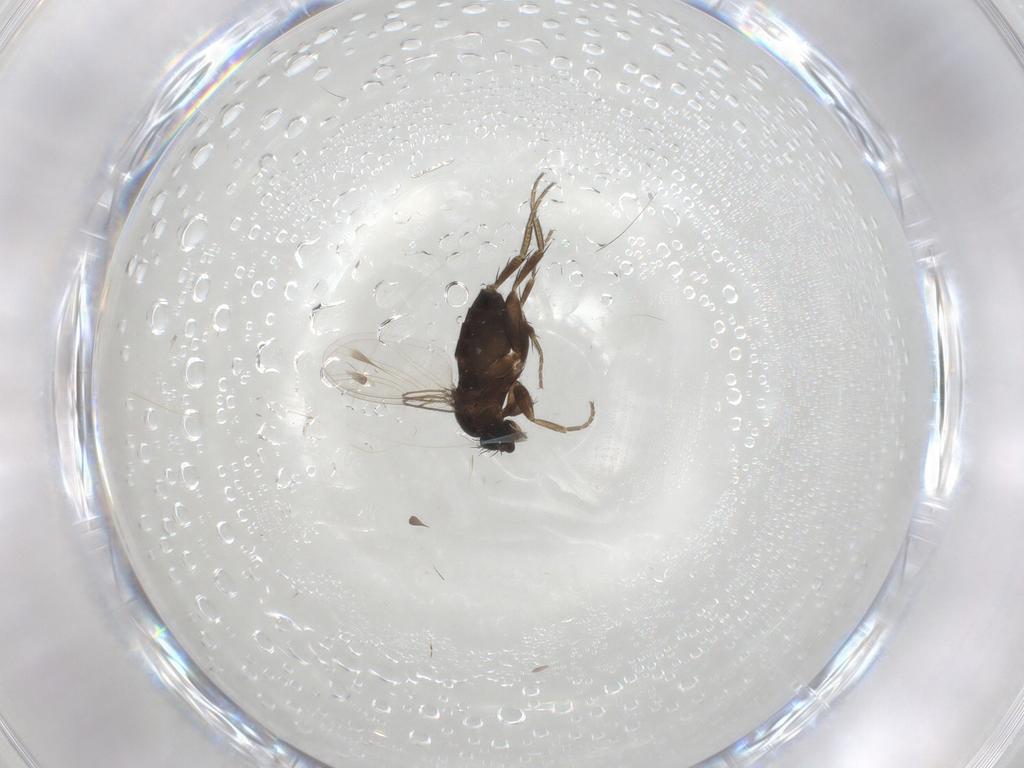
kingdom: Animalia
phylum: Arthropoda
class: Insecta
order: Diptera
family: Phoridae
